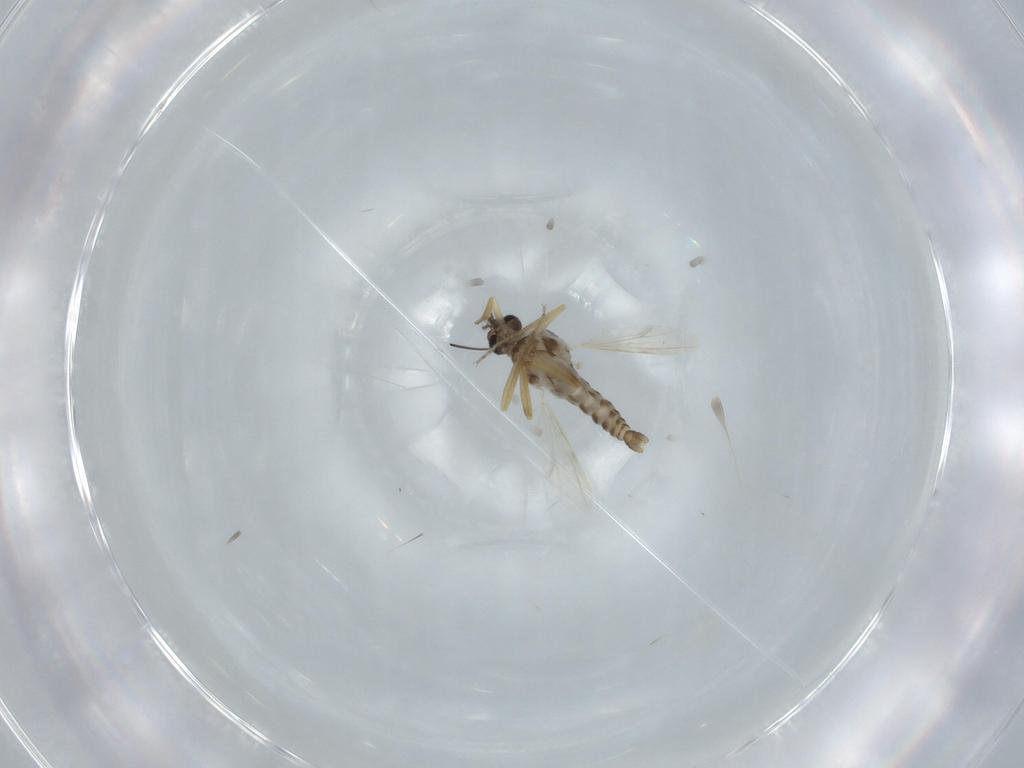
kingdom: Animalia
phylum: Arthropoda
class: Insecta
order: Diptera
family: Ceratopogonidae
